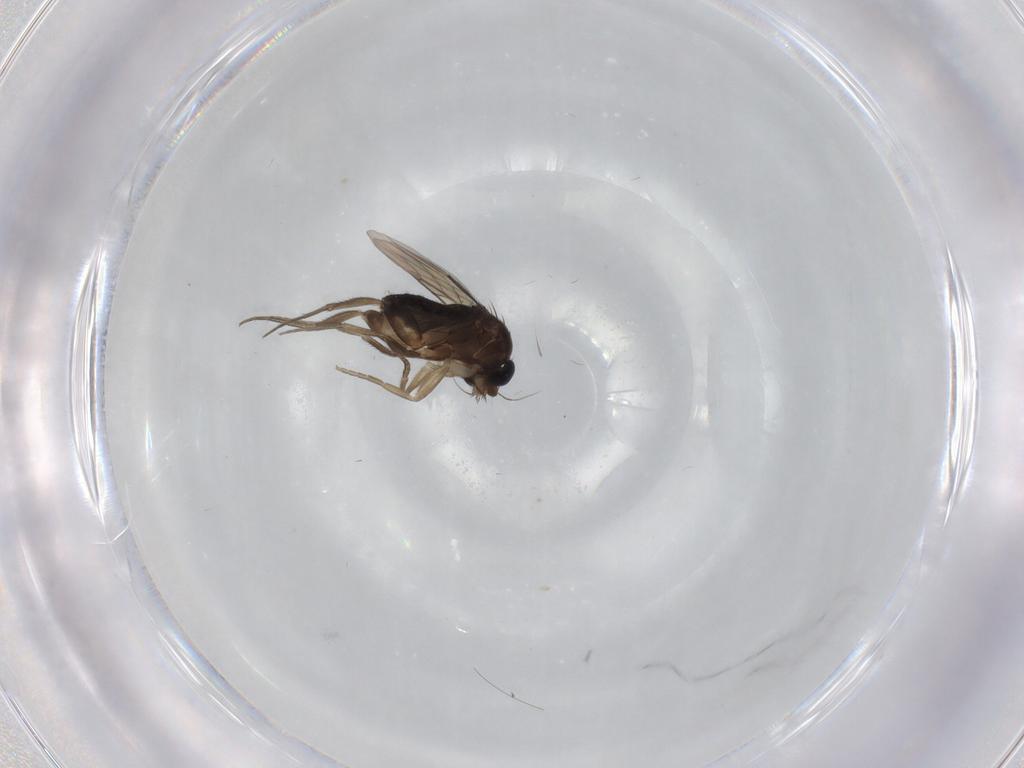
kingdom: Animalia
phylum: Arthropoda
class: Insecta
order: Diptera
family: Phoridae
